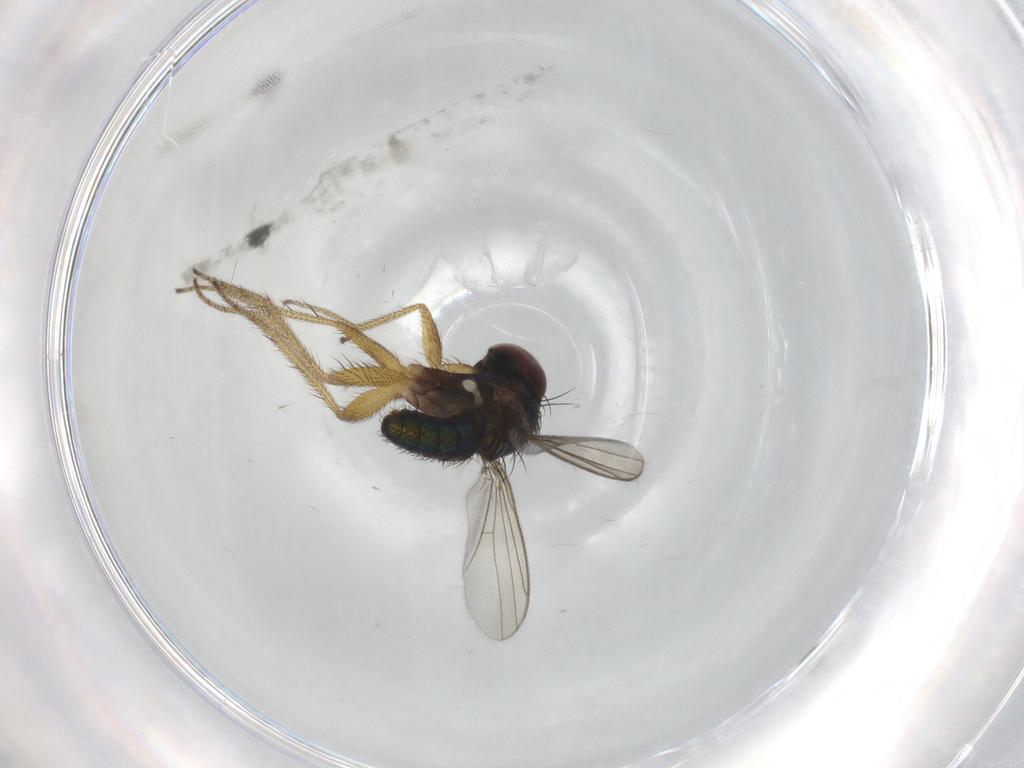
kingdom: Animalia
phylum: Arthropoda
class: Insecta
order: Diptera
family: Dolichopodidae
